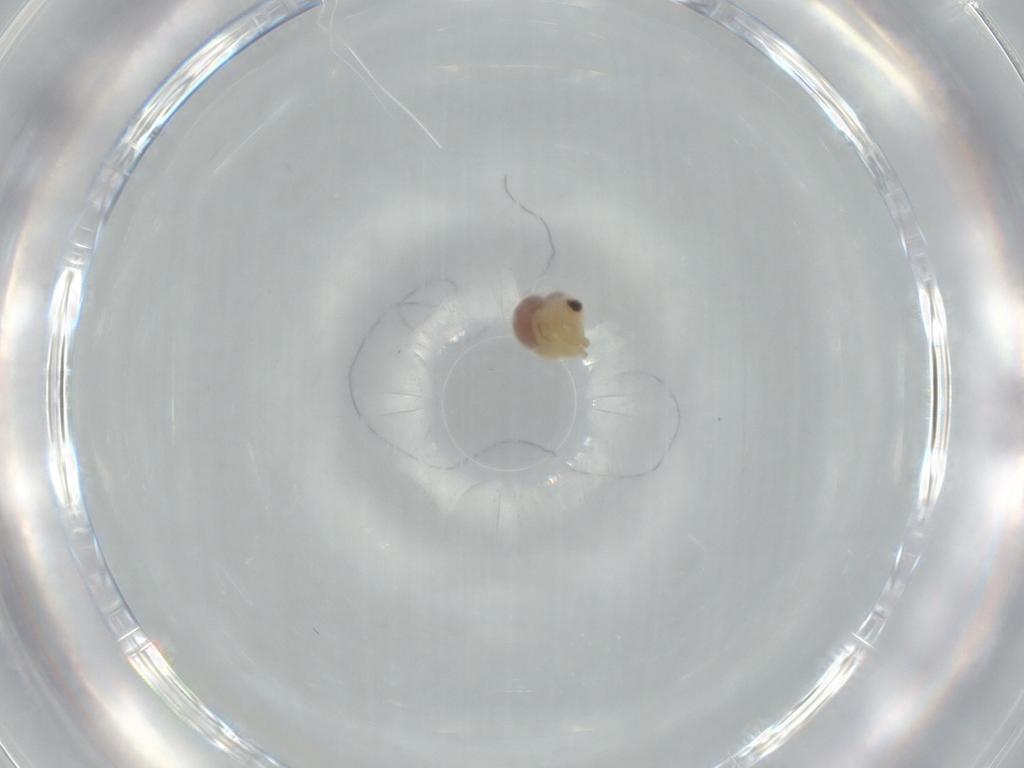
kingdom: Animalia
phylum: Arthropoda
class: Arachnida
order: Araneae
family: Pholcidae
